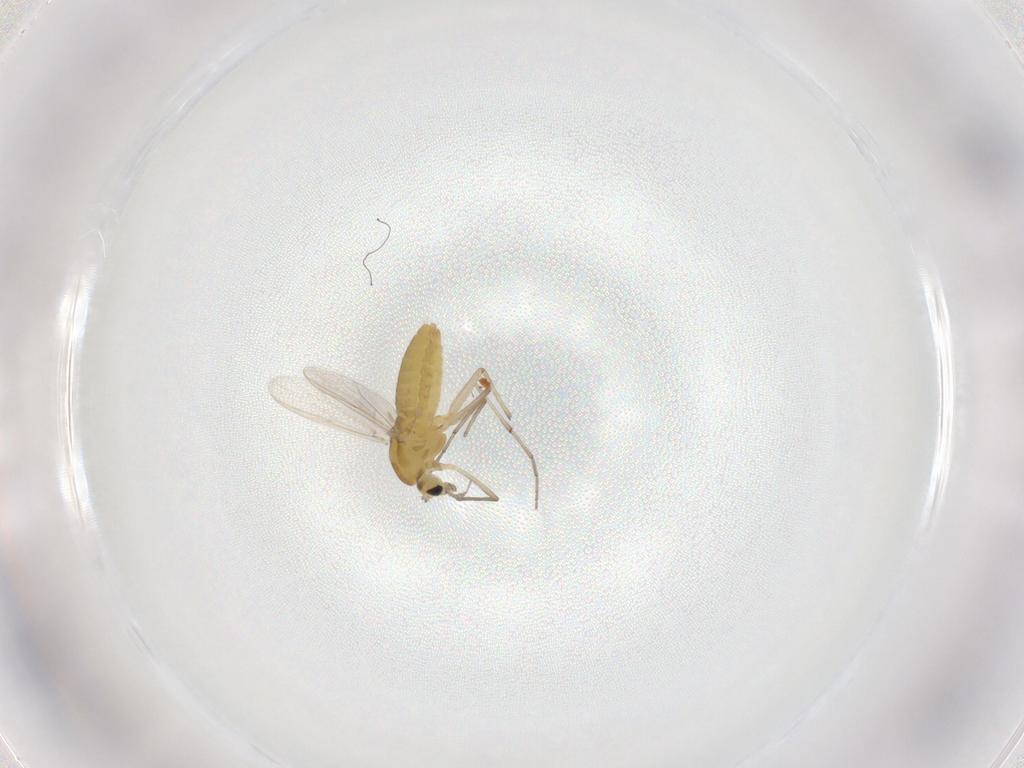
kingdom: Animalia
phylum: Arthropoda
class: Insecta
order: Diptera
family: Chironomidae
